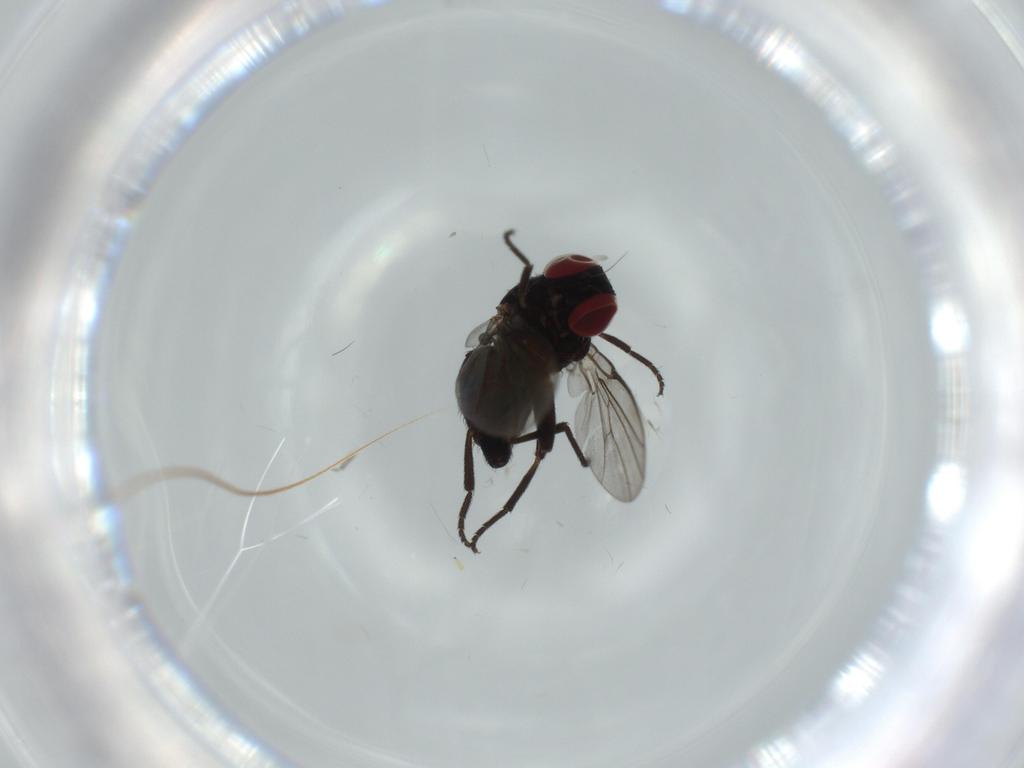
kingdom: Animalia
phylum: Arthropoda
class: Insecta
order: Diptera
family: Agromyzidae
